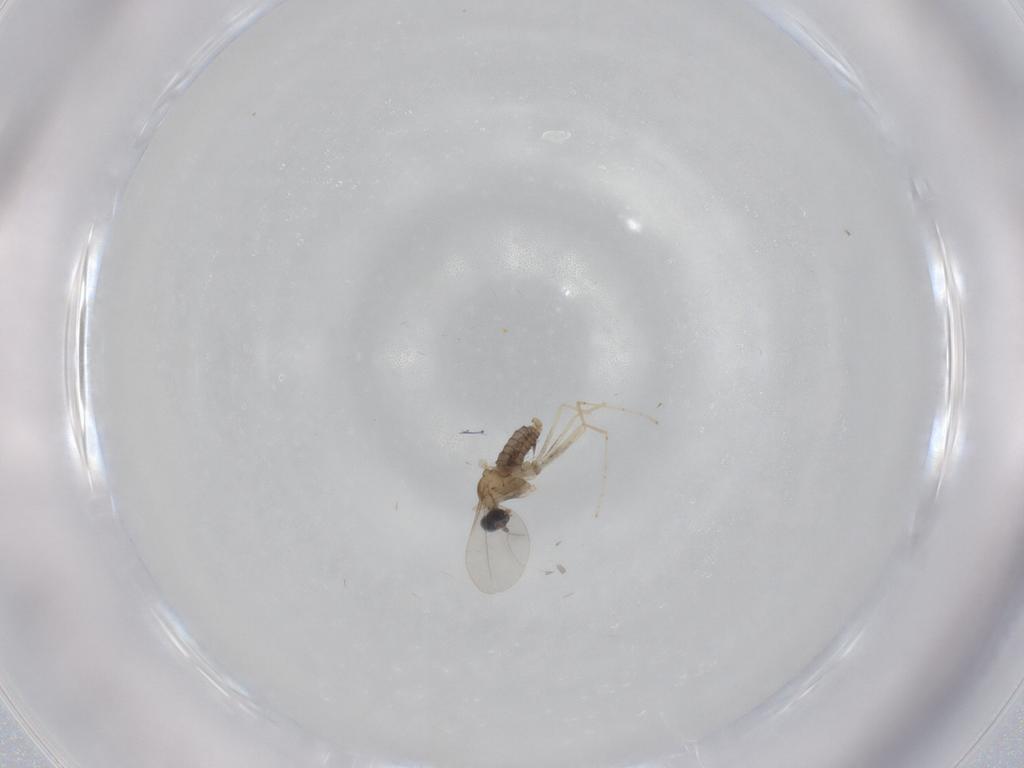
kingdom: Animalia
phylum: Arthropoda
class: Insecta
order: Diptera
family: Cecidomyiidae
